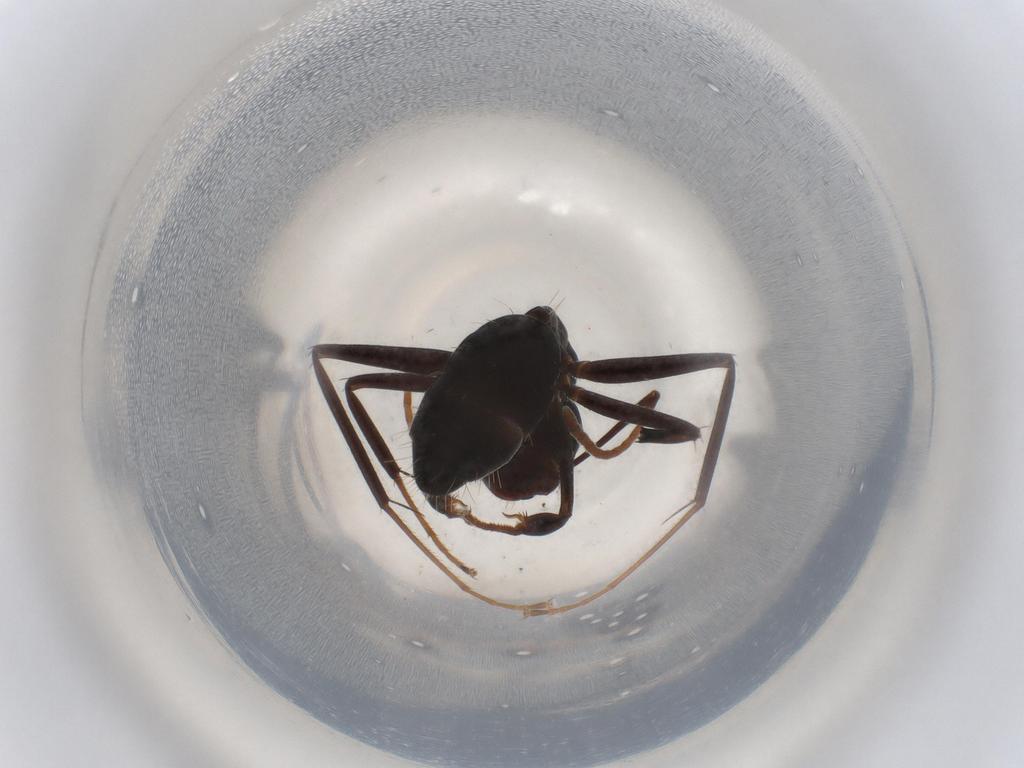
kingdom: Animalia
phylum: Arthropoda
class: Insecta
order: Hymenoptera
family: Formicidae
